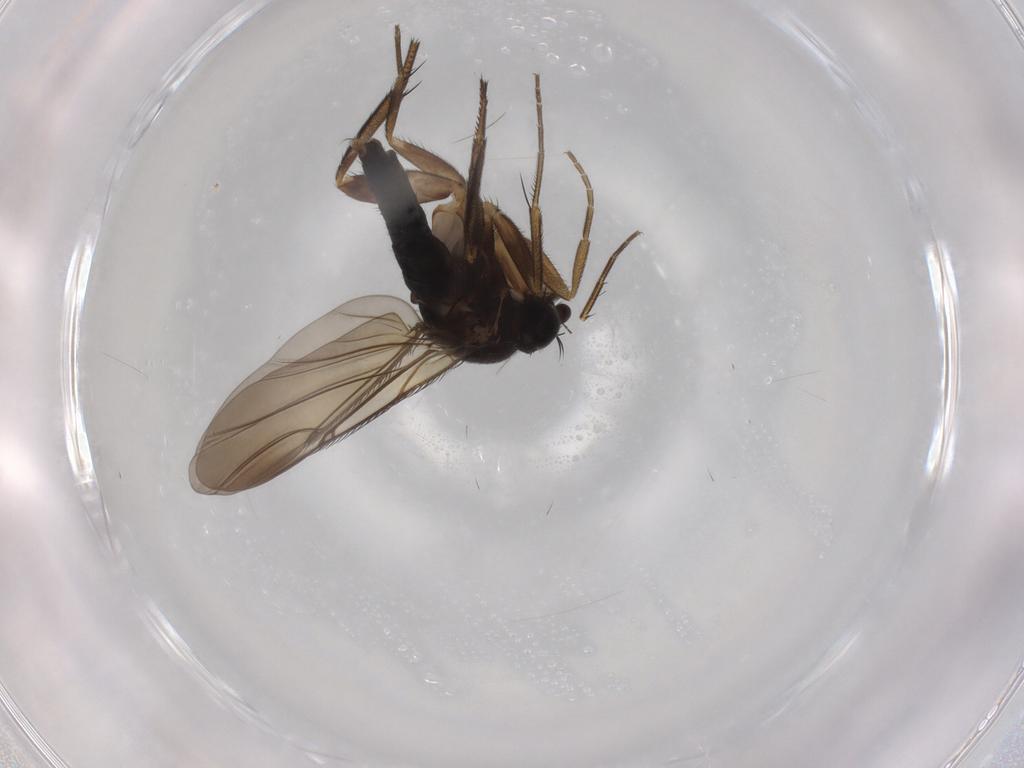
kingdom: Animalia
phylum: Arthropoda
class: Insecta
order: Diptera
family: Phoridae
